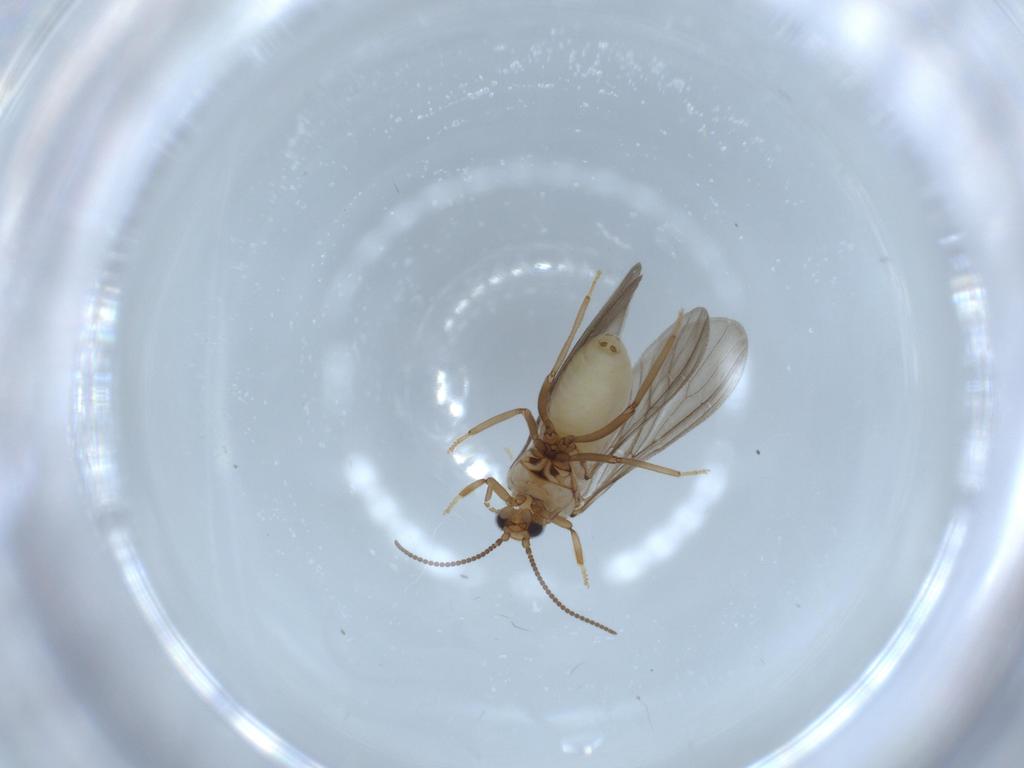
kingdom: Animalia
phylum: Arthropoda
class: Insecta
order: Neuroptera
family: Coniopterygidae
